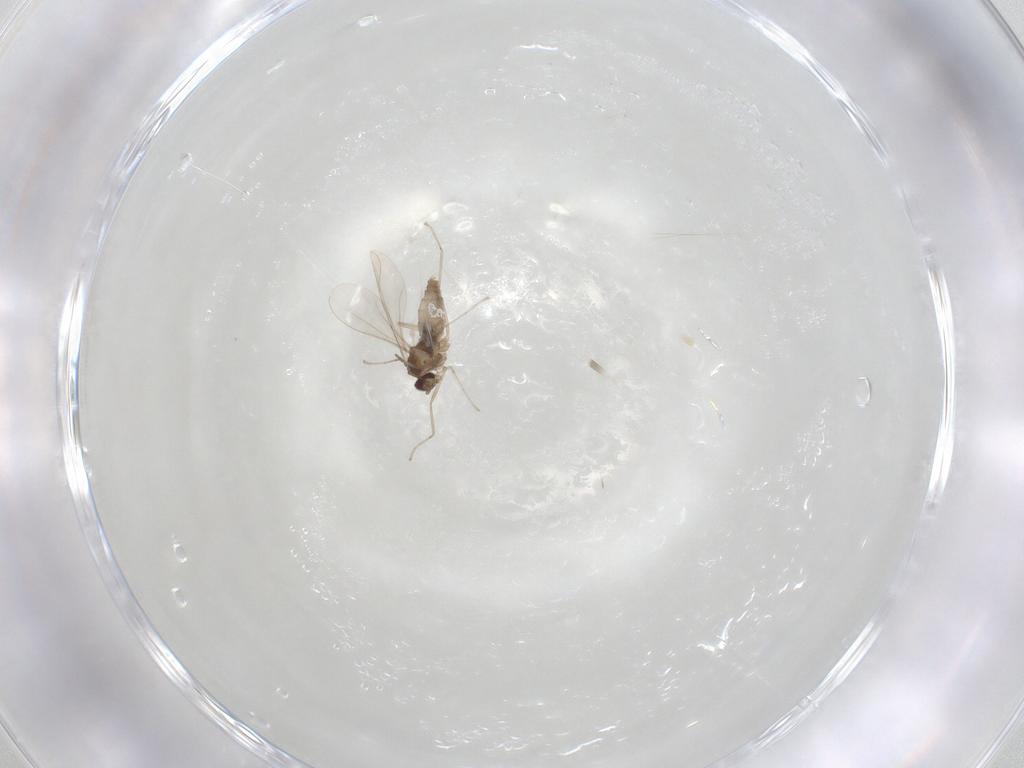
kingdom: Animalia
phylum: Arthropoda
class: Insecta
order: Diptera
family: Cecidomyiidae
